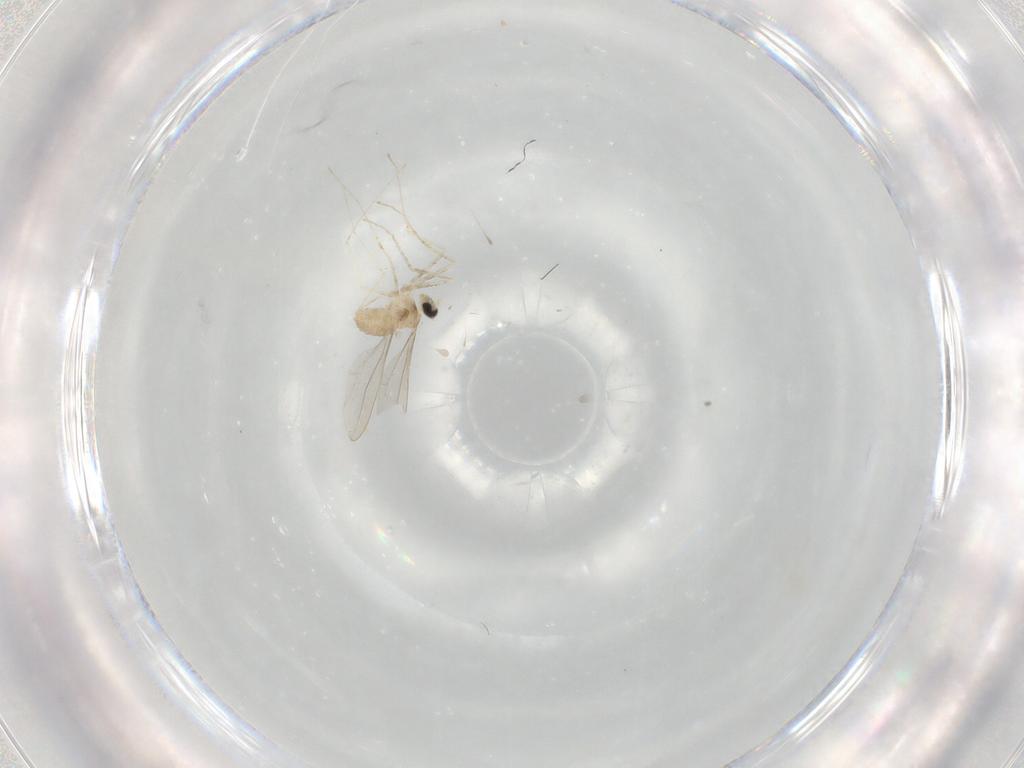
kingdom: Animalia
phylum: Arthropoda
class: Insecta
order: Diptera
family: Cecidomyiidae
